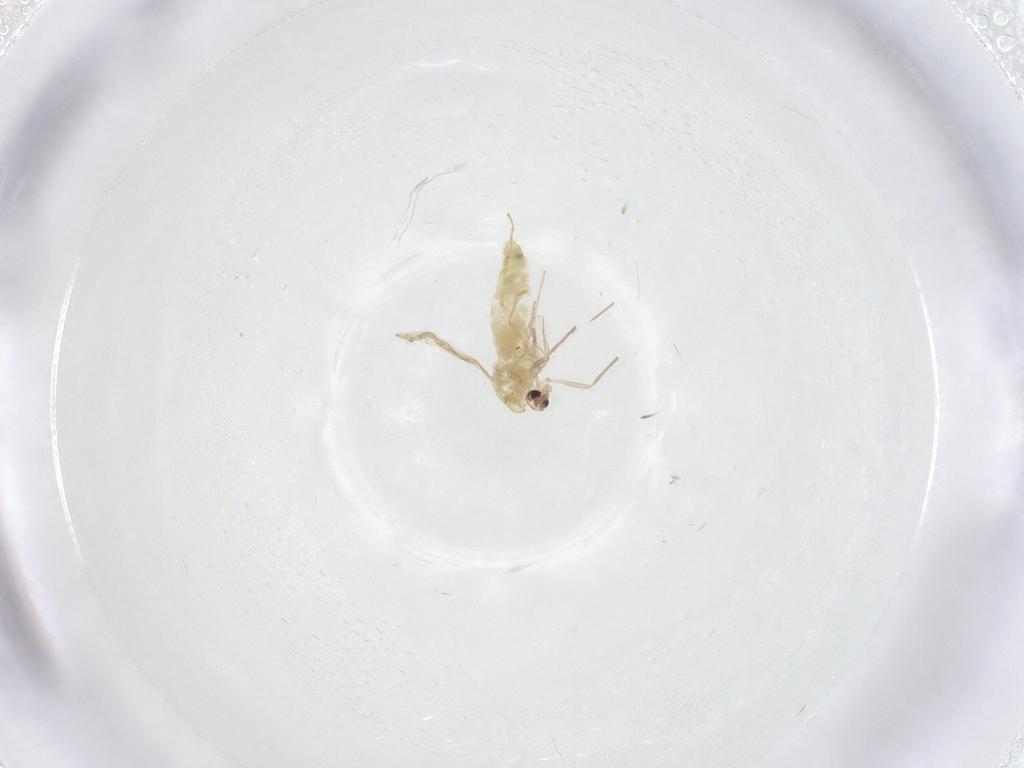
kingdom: Animalia
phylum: Arthropoda
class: Insecta
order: Diptera
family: Chironomidae
